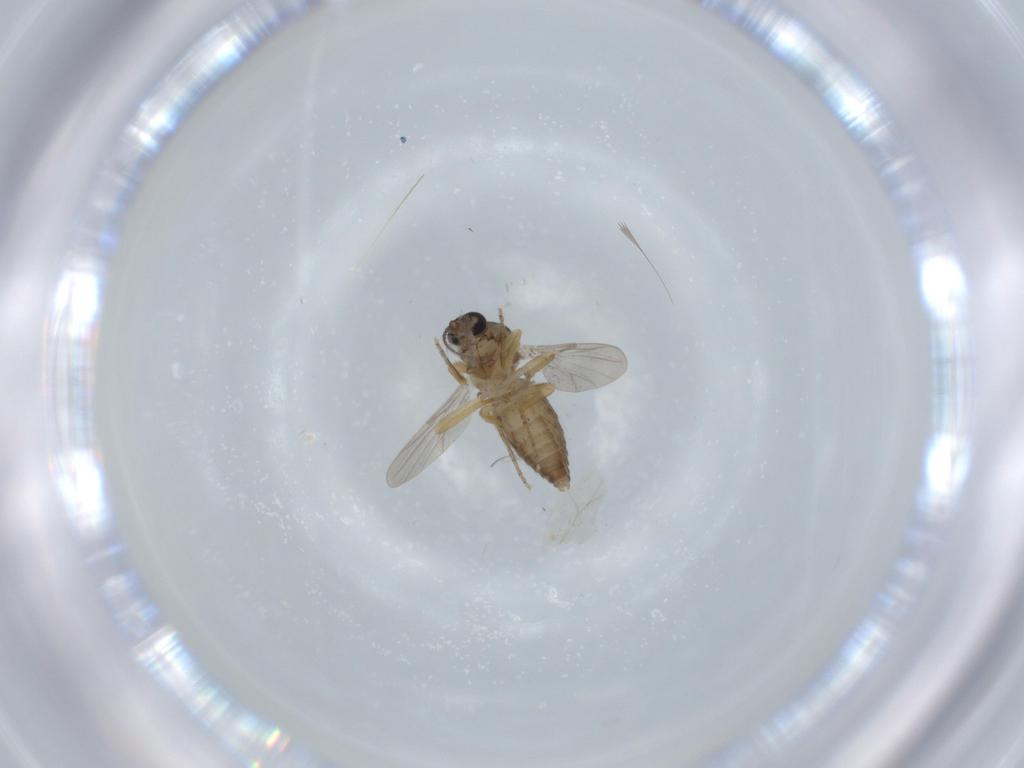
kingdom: Animalia
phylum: Arthropoda
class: Insecta
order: Diptera
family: Ceratopogonidae
